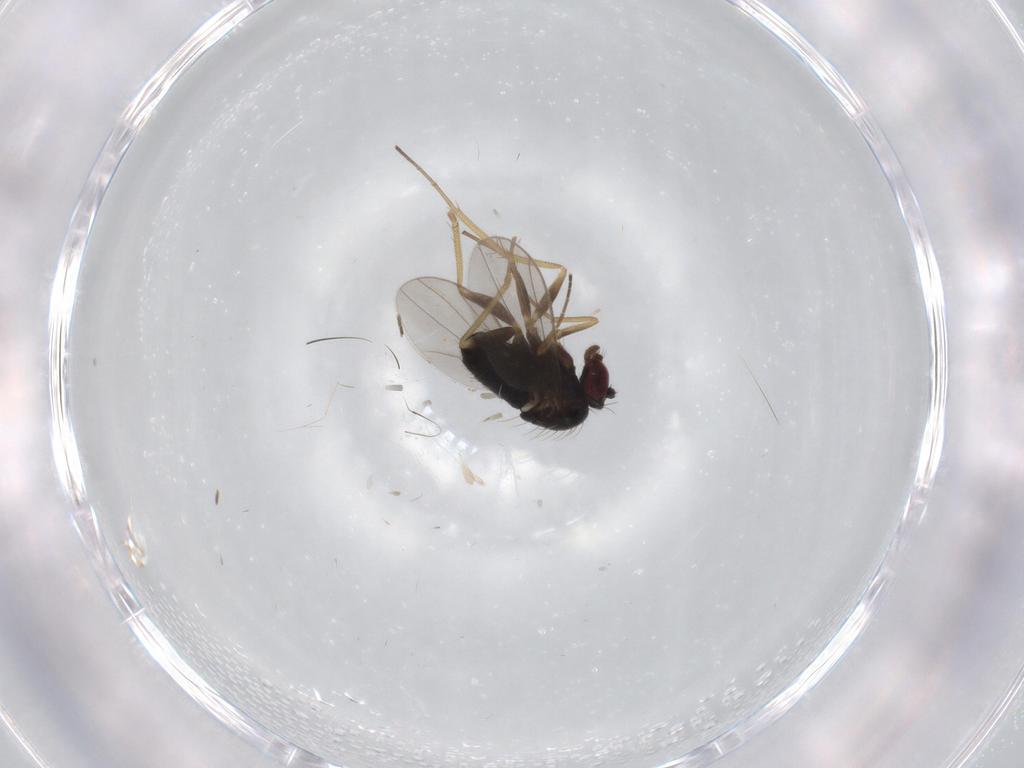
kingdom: Animalia
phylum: Arthropoda
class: Insecta
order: Diptera
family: Dolichopodidae
